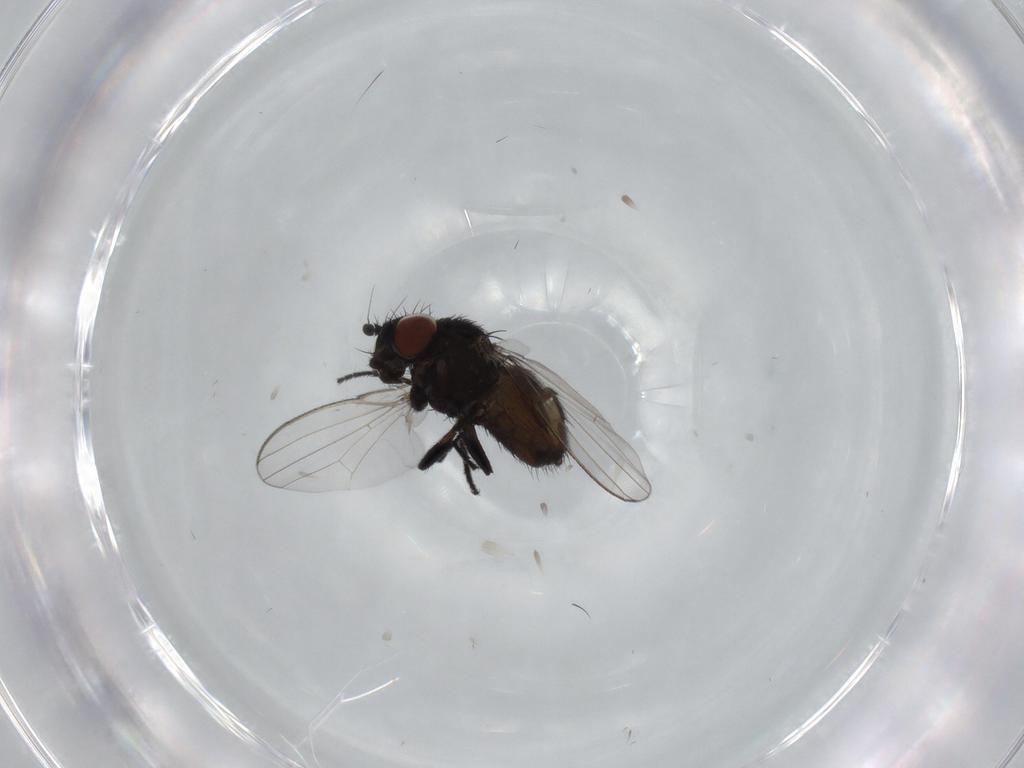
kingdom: Animalia
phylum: Arthropoda
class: Insecta
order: Diptera
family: Milichiidae
